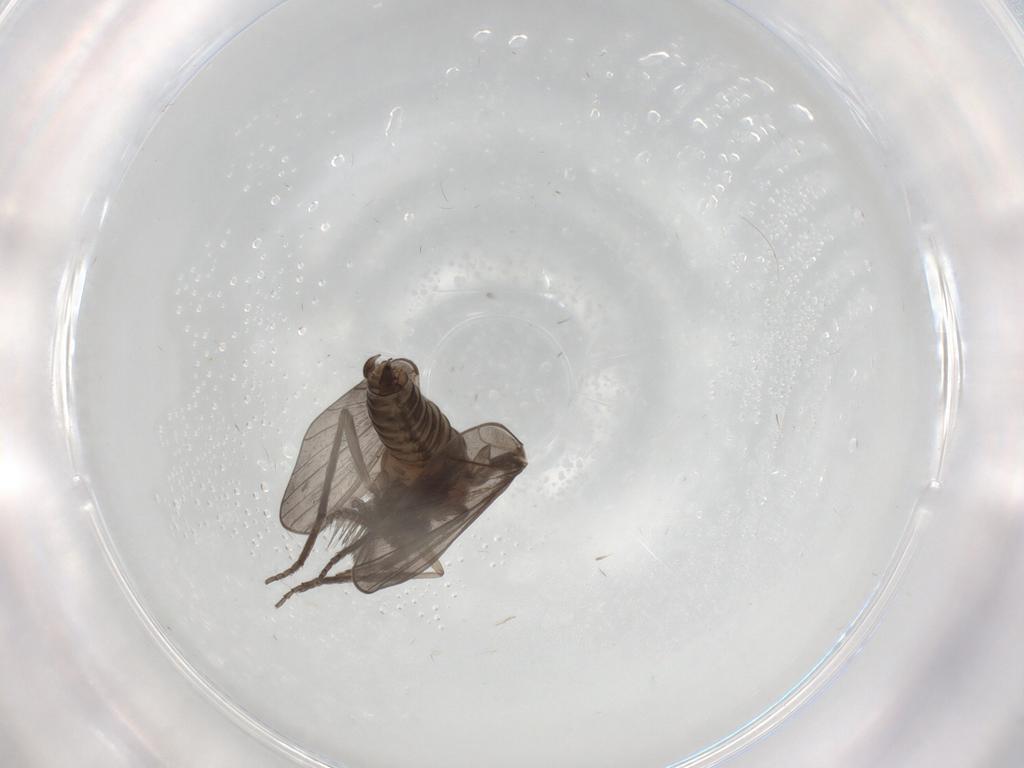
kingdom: Animalia
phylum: Arthropoda
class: Insecta
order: Diptera
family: Psychodidae
